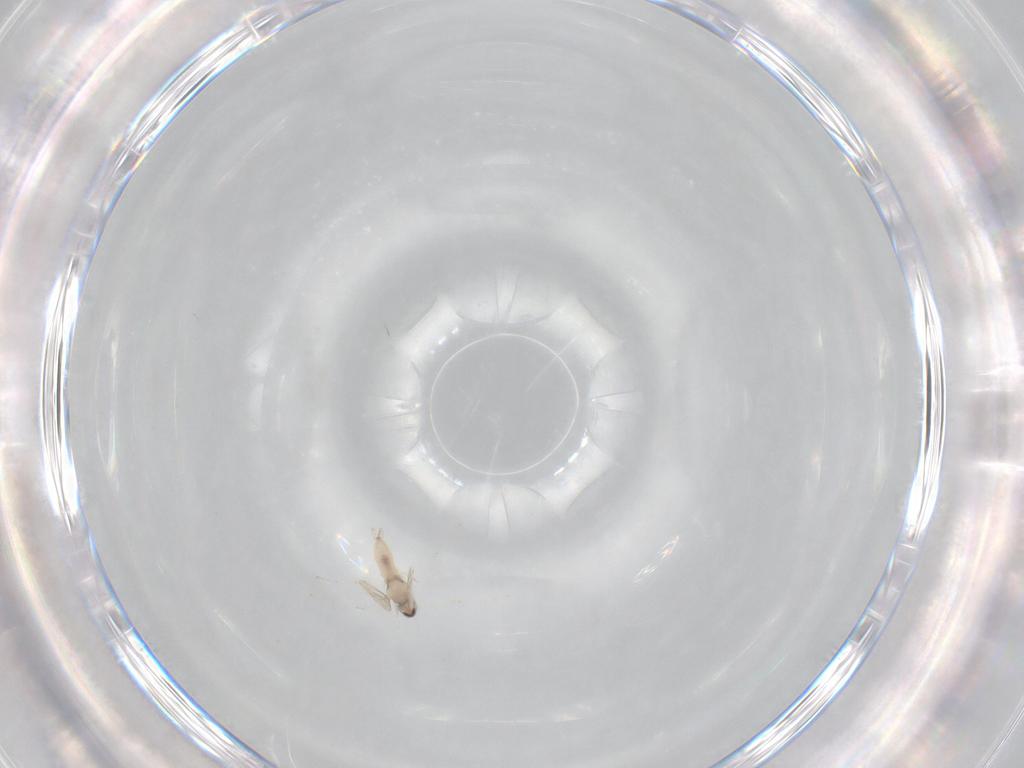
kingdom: Animalia
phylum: Arthropoda
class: Insecta
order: Diptera
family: Cecidomyiidae
